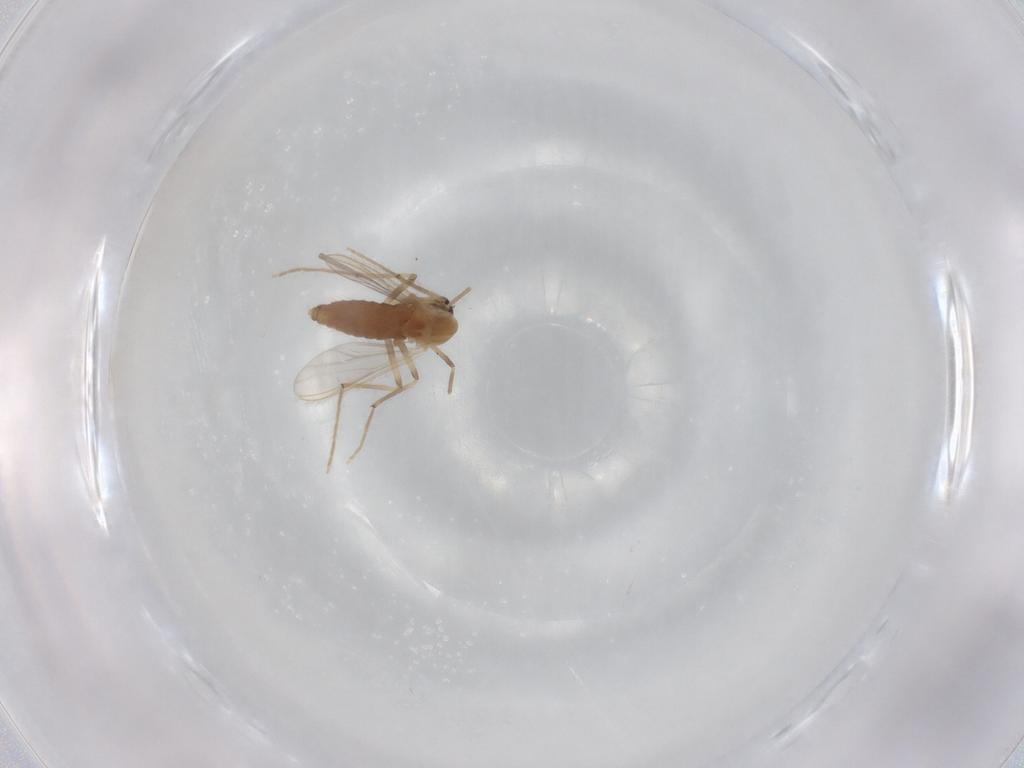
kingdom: Animalia
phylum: Arthropoda
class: Insecta
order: Diptera
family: Chironomidae
